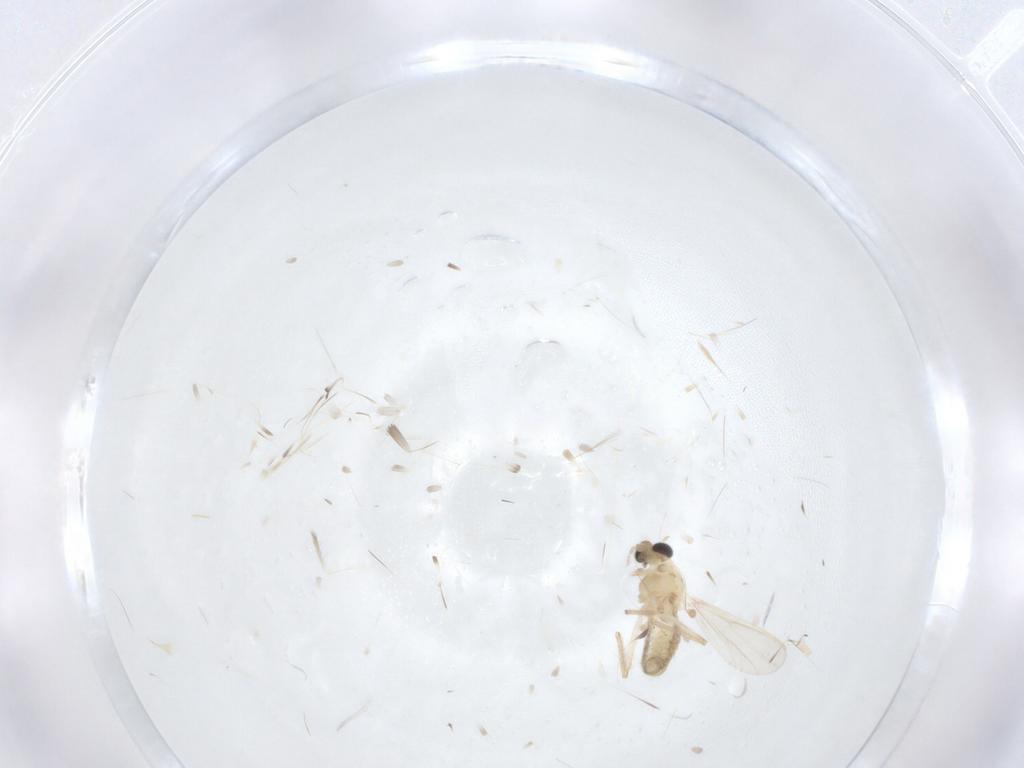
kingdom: Animalia
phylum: Arthropoda
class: Insecta
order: Diptera
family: Chironomidae
